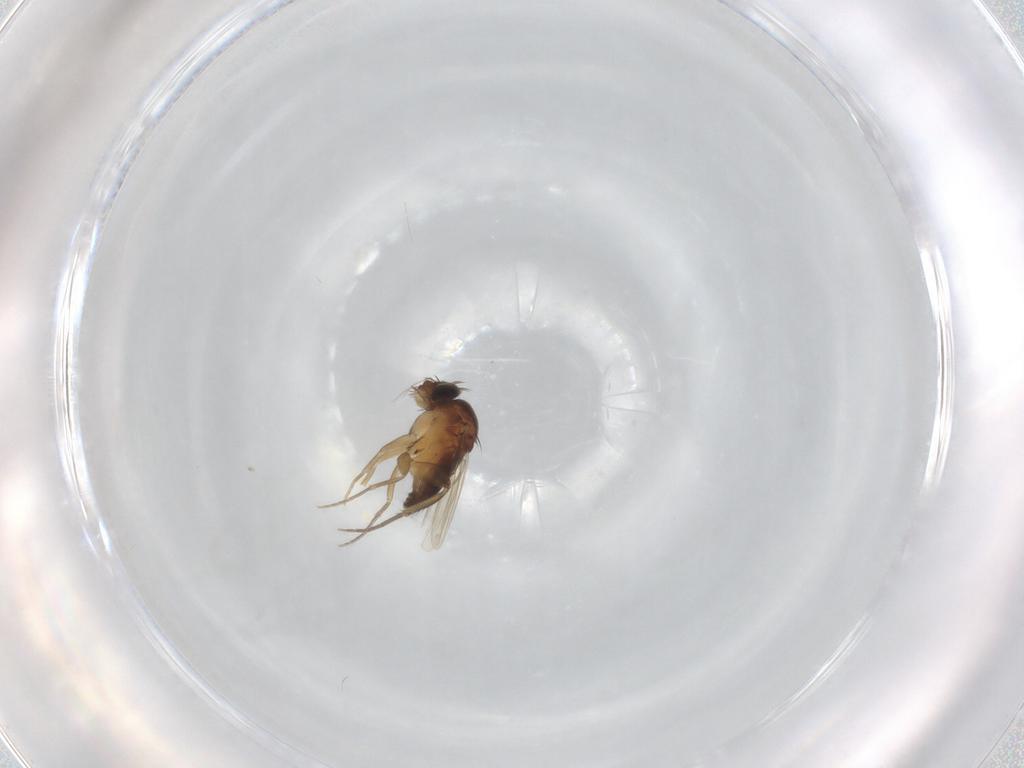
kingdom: Animalia
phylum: Arthropoda
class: Insecta
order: Diptera
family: Phoridae
